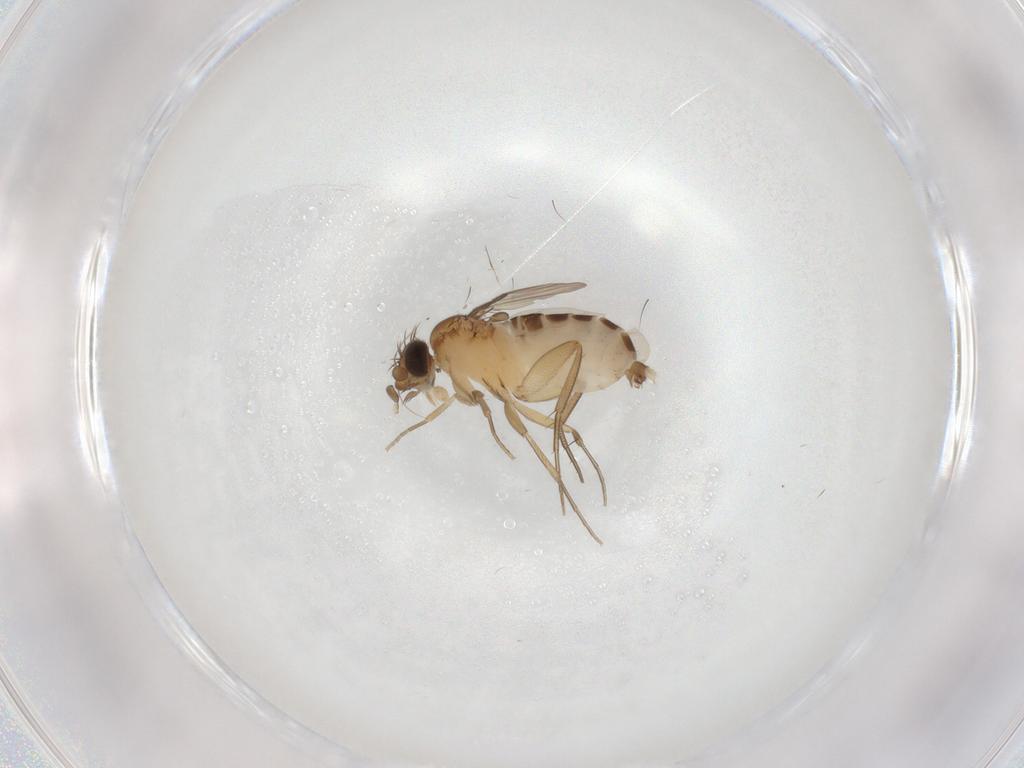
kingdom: Animalia
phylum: Arthropoda
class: Insecta
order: Diptera
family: Phoridae
